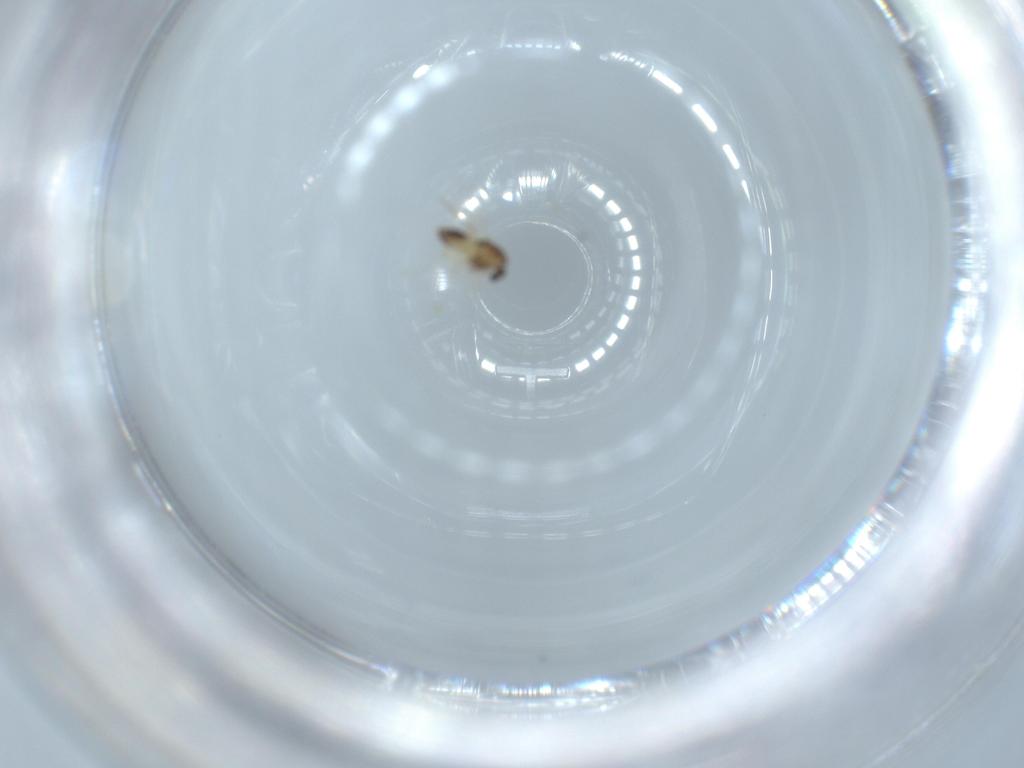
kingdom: Animalia
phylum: Arthropoda
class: Insecta
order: Diptera
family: Chironomidae
